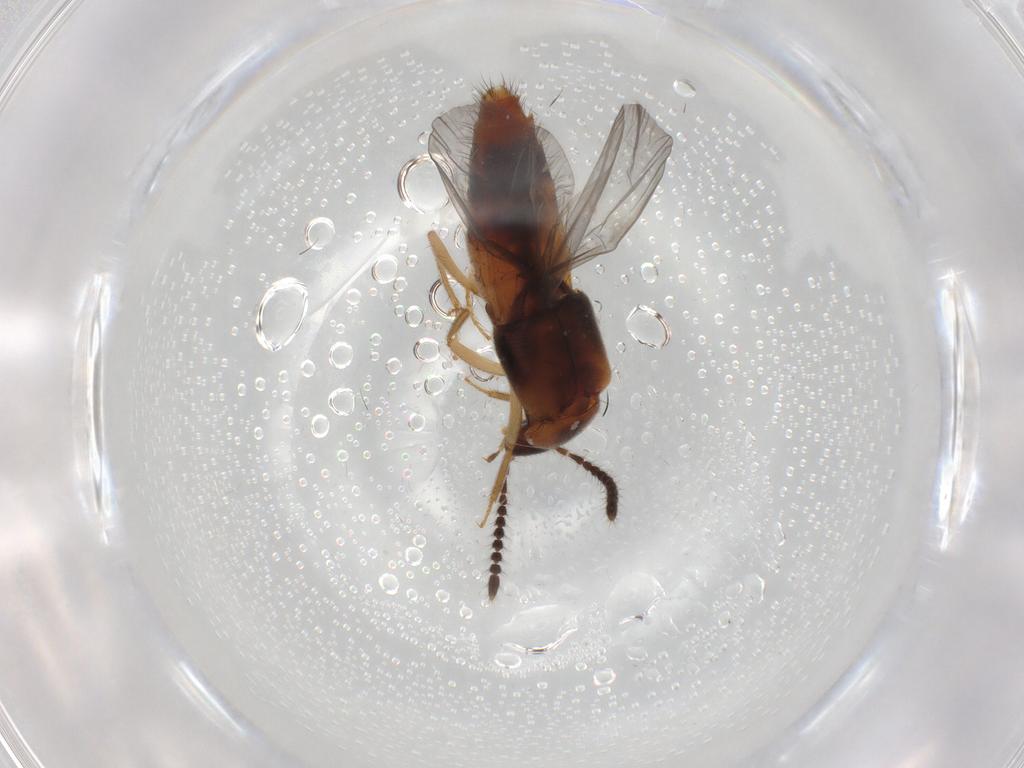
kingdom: Animalia
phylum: Arthropoda
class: Insecta
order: Coleoptera
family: Staphylinidae
